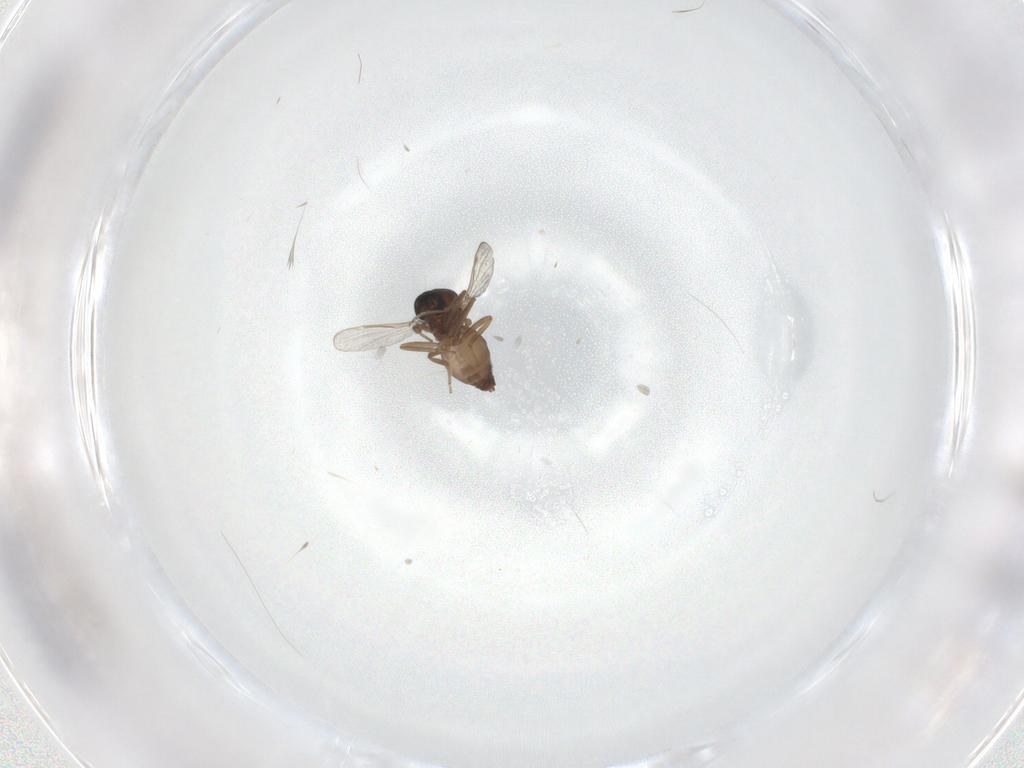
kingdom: Animalia
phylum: Arthropoda
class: Insecta
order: Diptera
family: Ceratopogonidae
